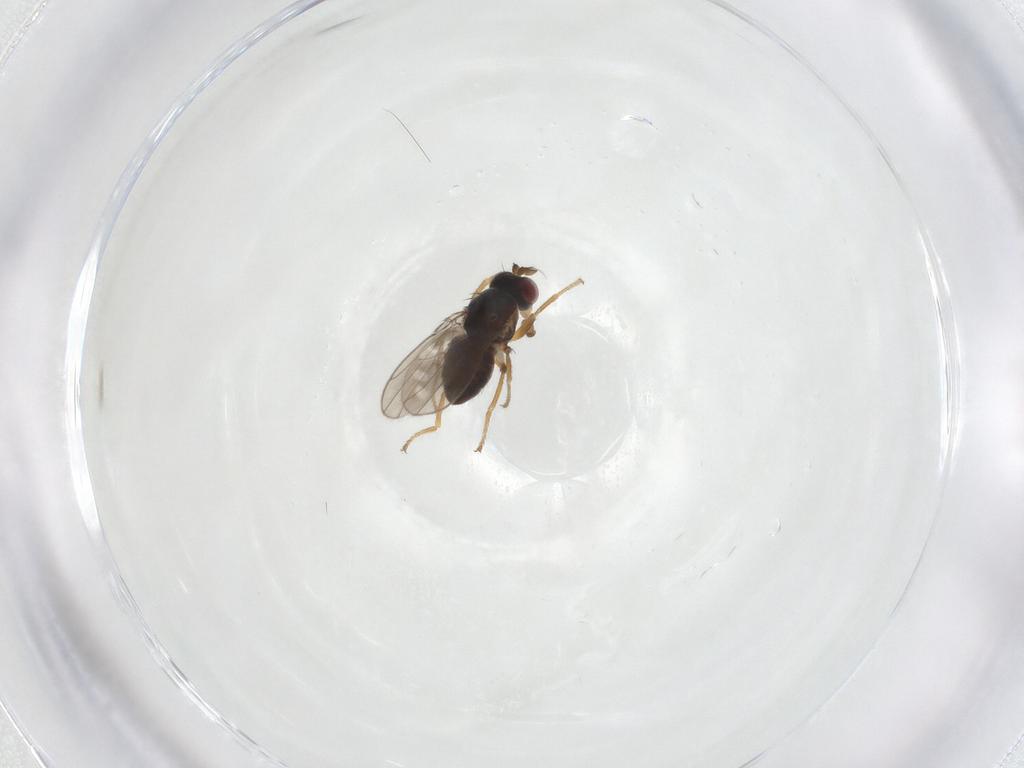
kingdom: Animalia
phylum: Arthropoda
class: Insecta
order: Diptera
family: Ephydridae
